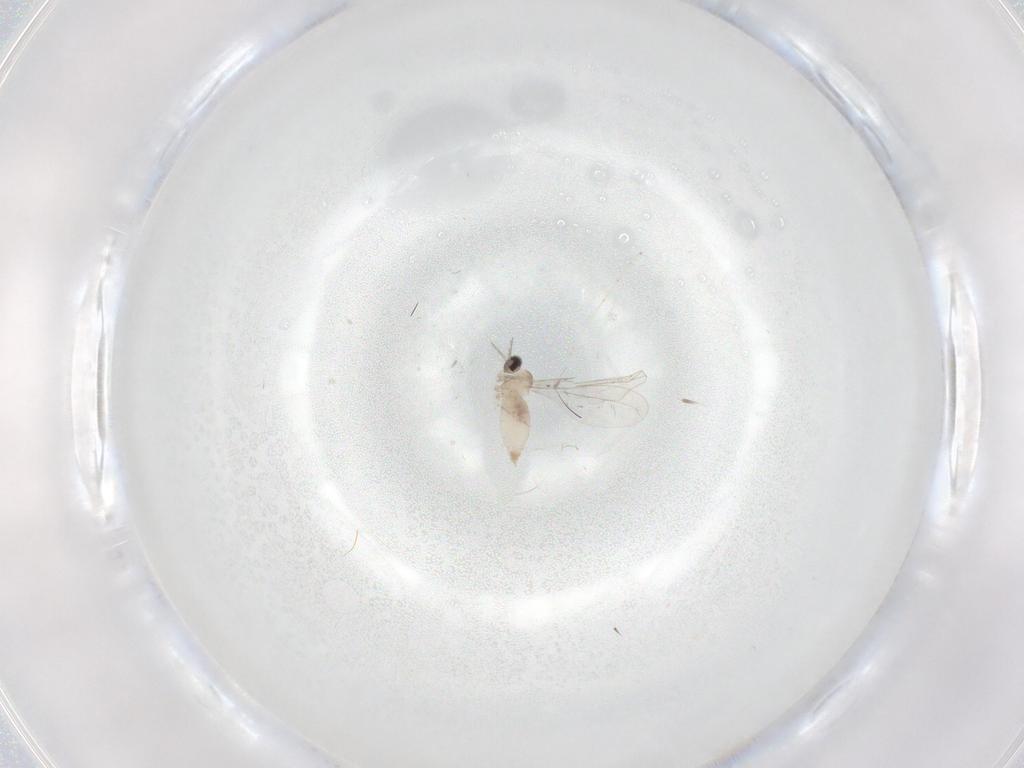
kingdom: Animalia
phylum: Arthropoda
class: Insecta
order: Diptera
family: Cecidomyiidae
